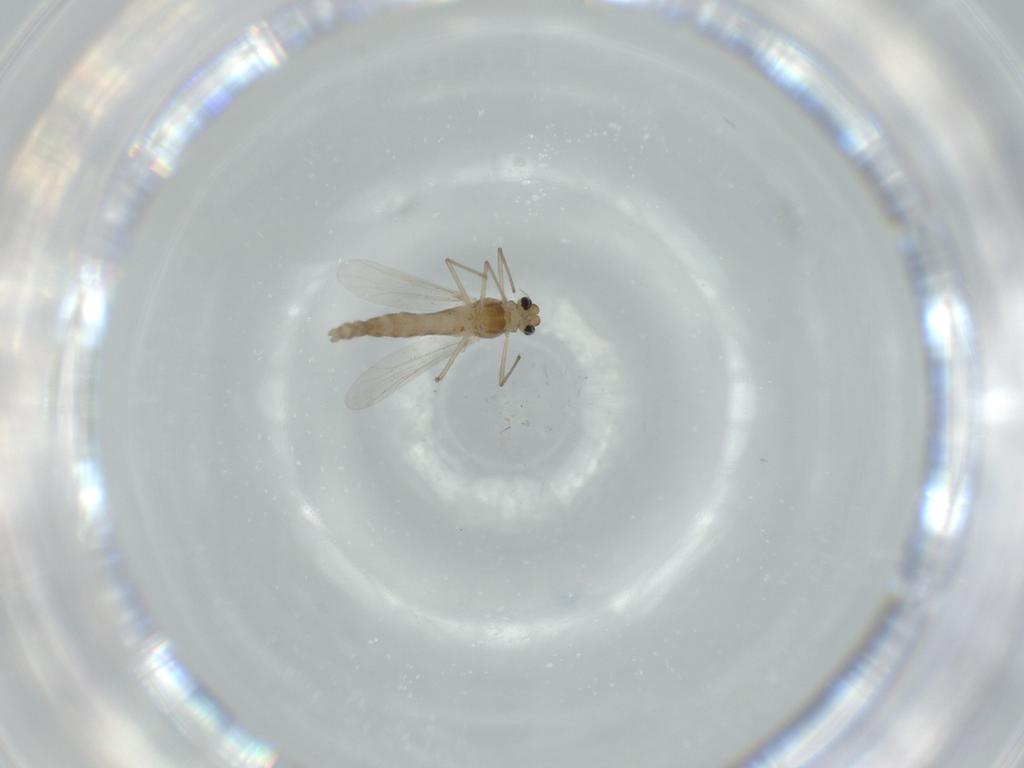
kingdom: Animalia
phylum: Arthropoda
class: Insecta
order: Diptera
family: Chironomidae
